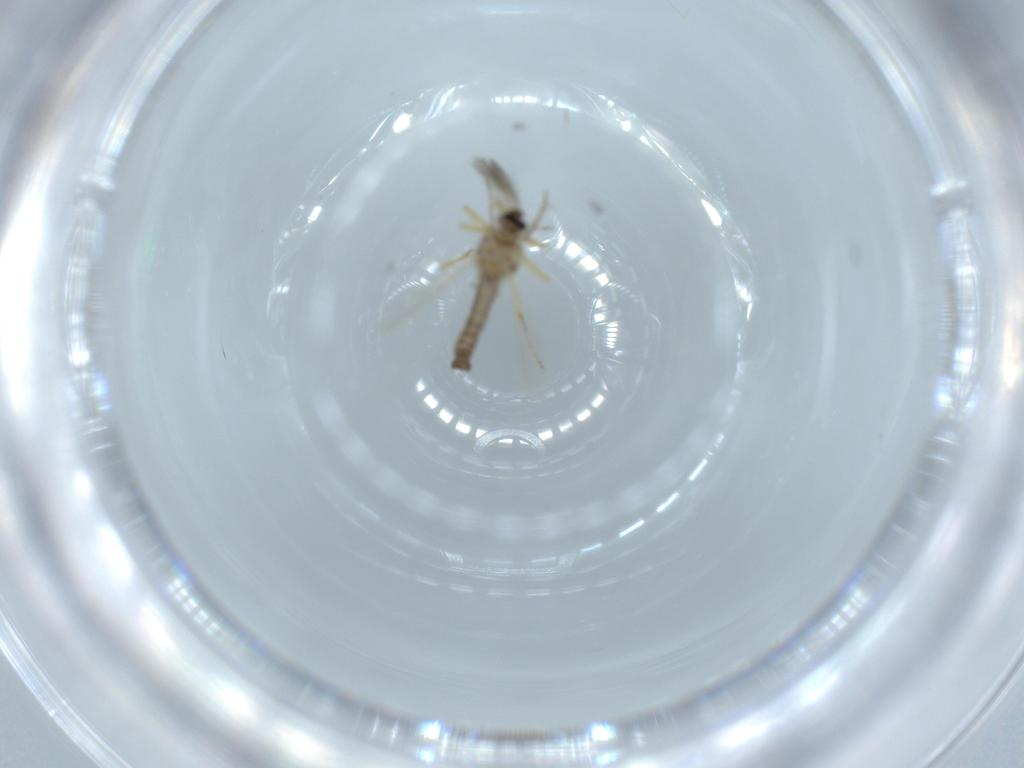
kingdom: Animalia
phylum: Arthropoda
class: Insecta
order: Diptera
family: Ceratopogonidae
